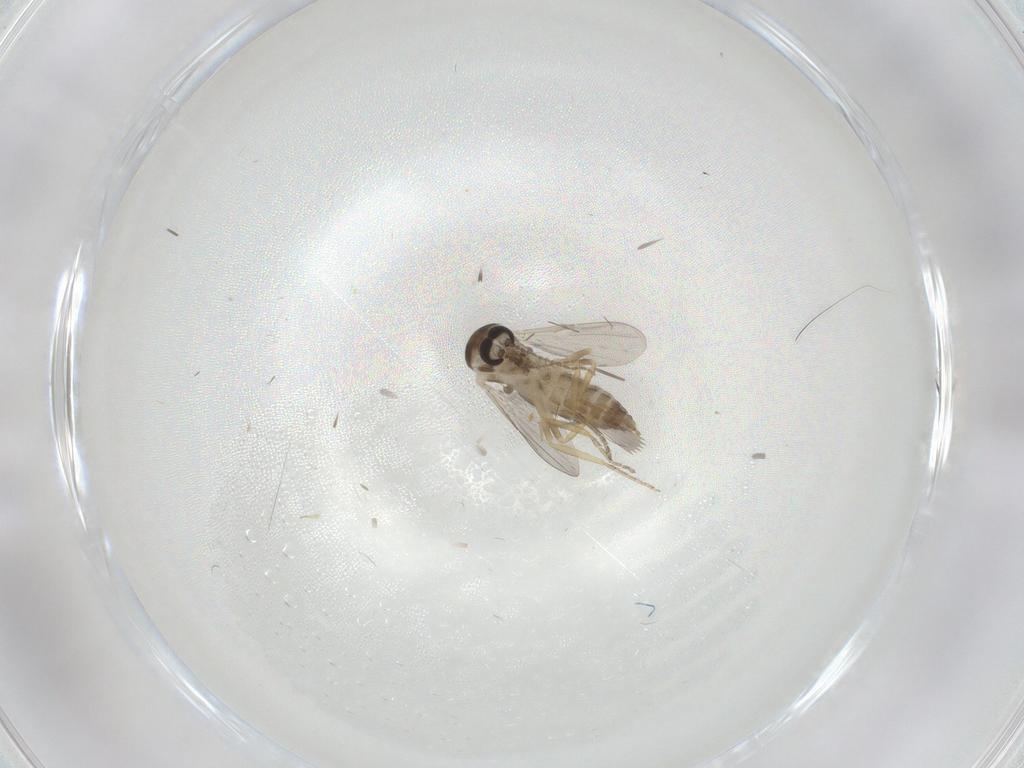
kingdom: Animalia
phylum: Arthropoda
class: Insecta
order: Diptera
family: Ceratopogonidae
